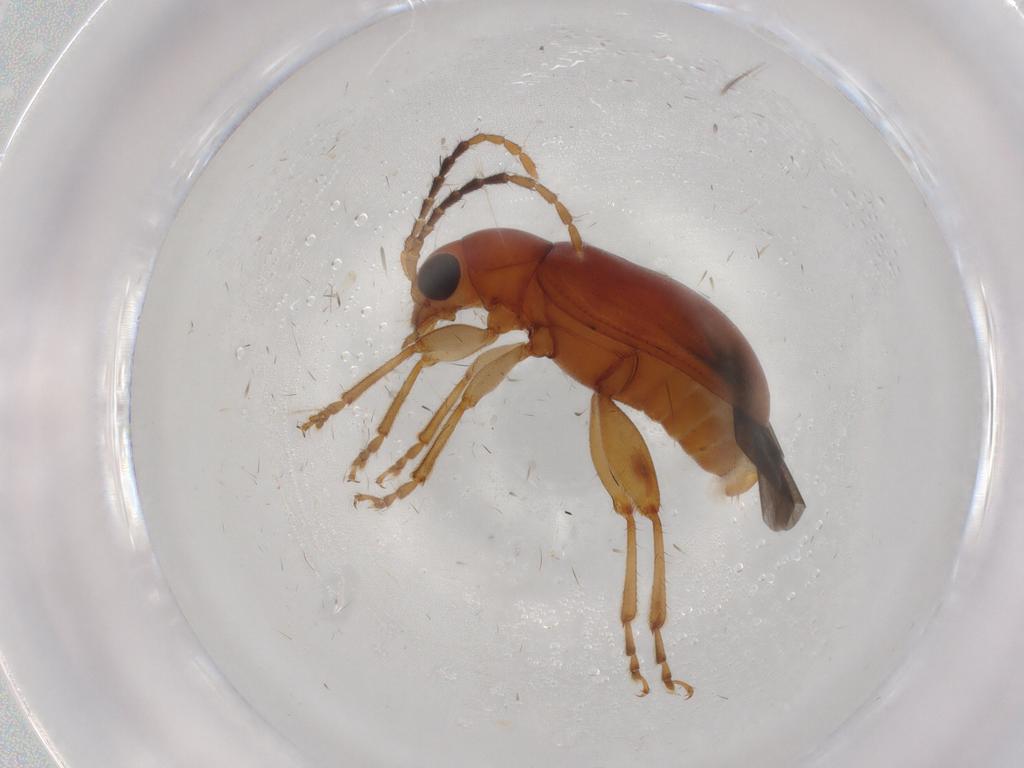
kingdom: Animalia
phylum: Arthropoda
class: Insecta
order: Coleoptera
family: Chrysomelidae
